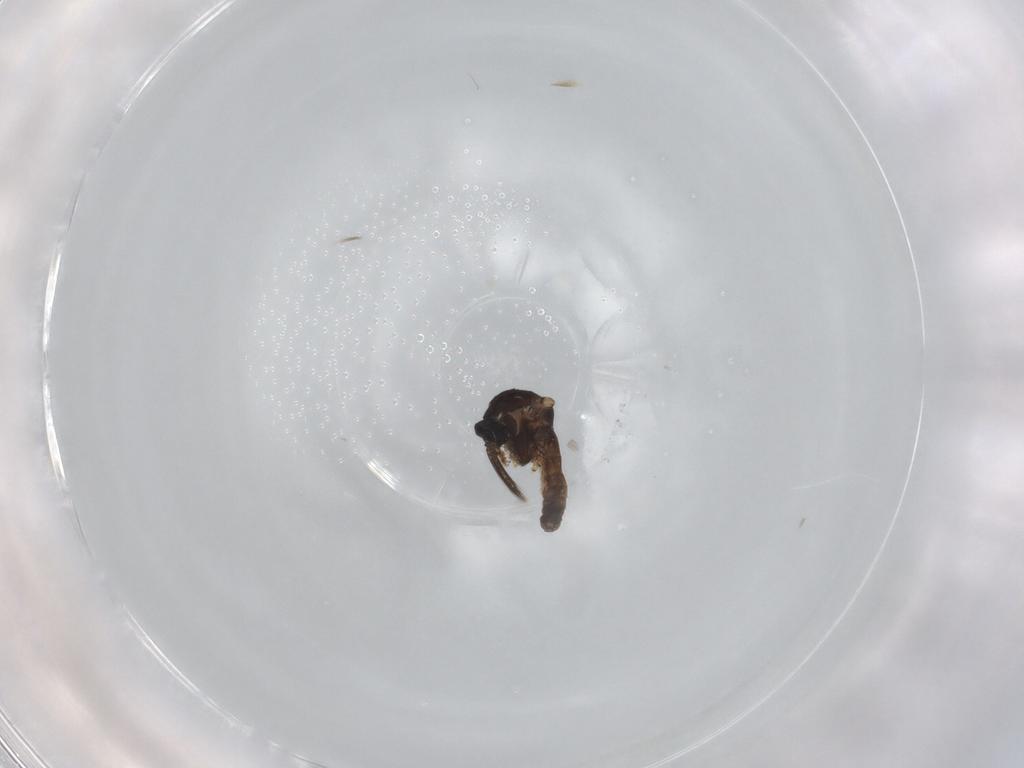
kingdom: Animalia
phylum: Arthropoda
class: Insecta
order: Diptera
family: Ceratopogonidae
